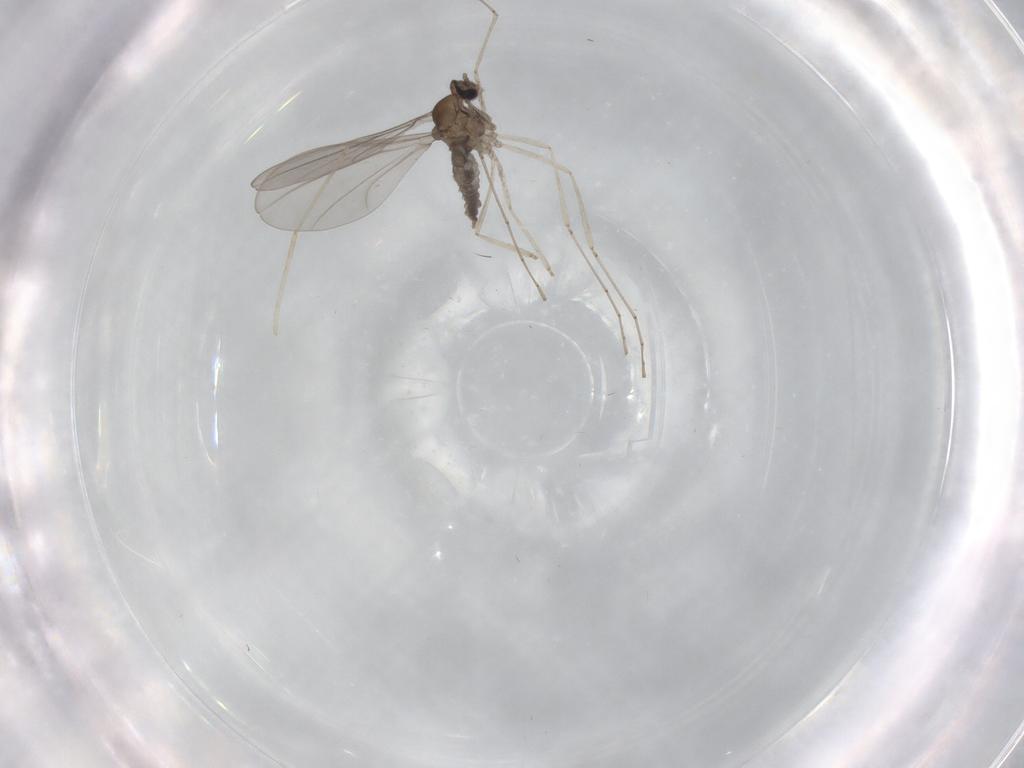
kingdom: Animalia
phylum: Arthropoda
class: Insecta
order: Diptera
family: Cecidomyiidae
